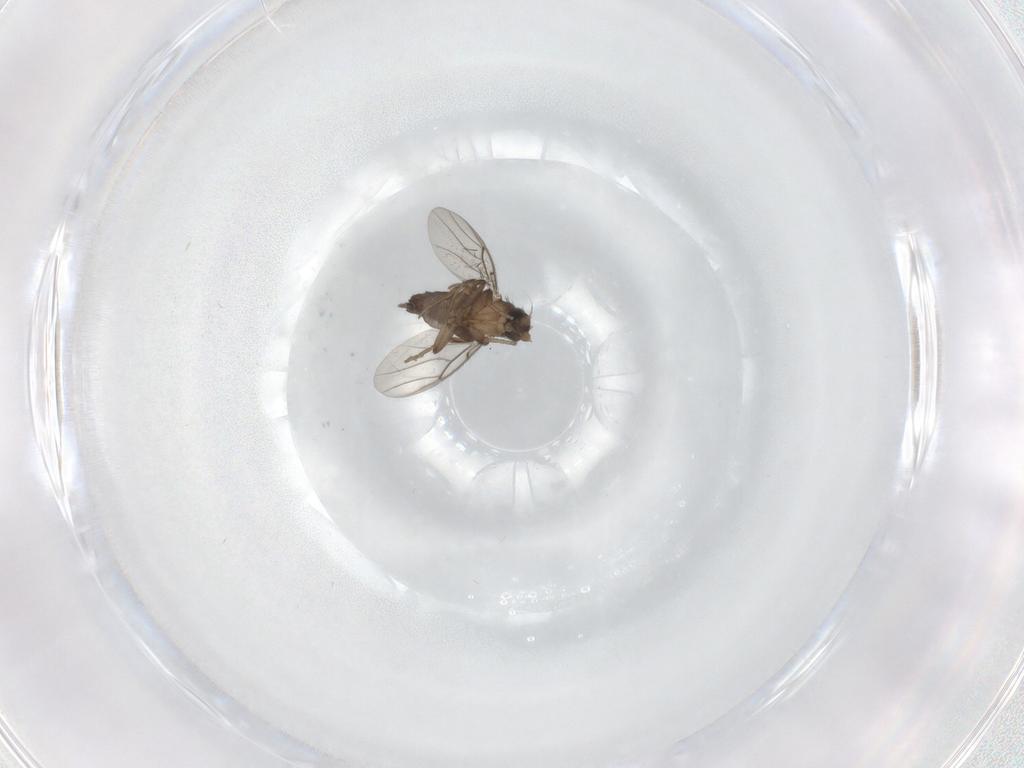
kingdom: Animalia
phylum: Arthropoda
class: Insecta
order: Diptera
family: Phoridae
